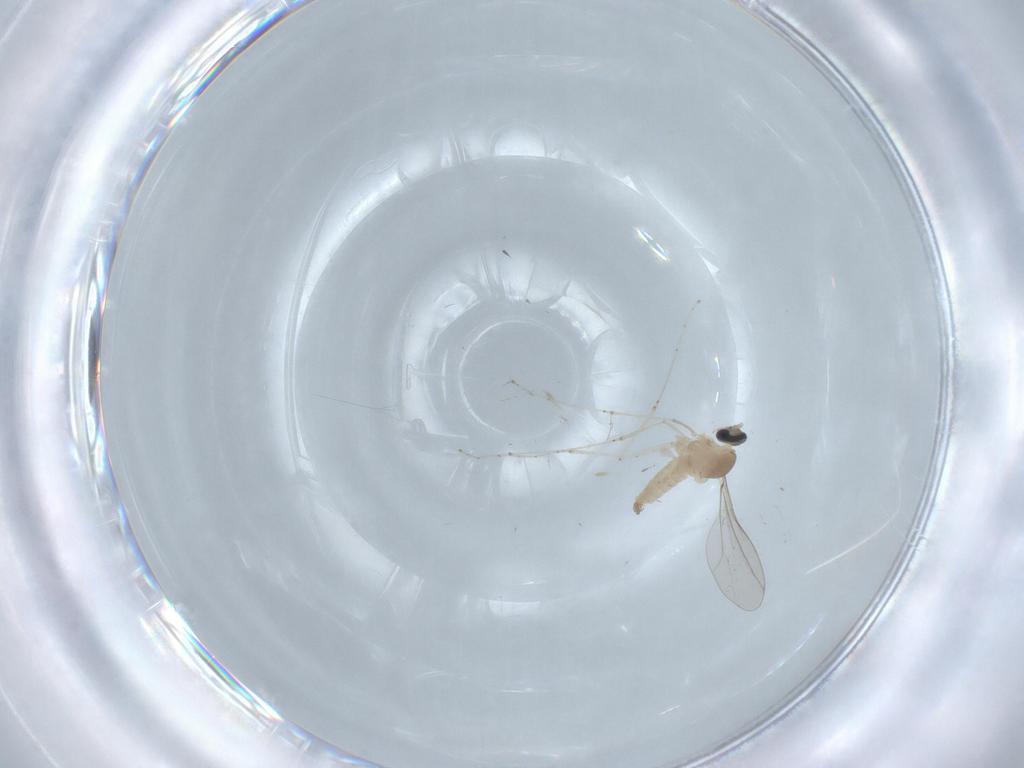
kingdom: Animalia
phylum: Arthropoda
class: Insecta
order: Diptera
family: Cecidomyiidae
